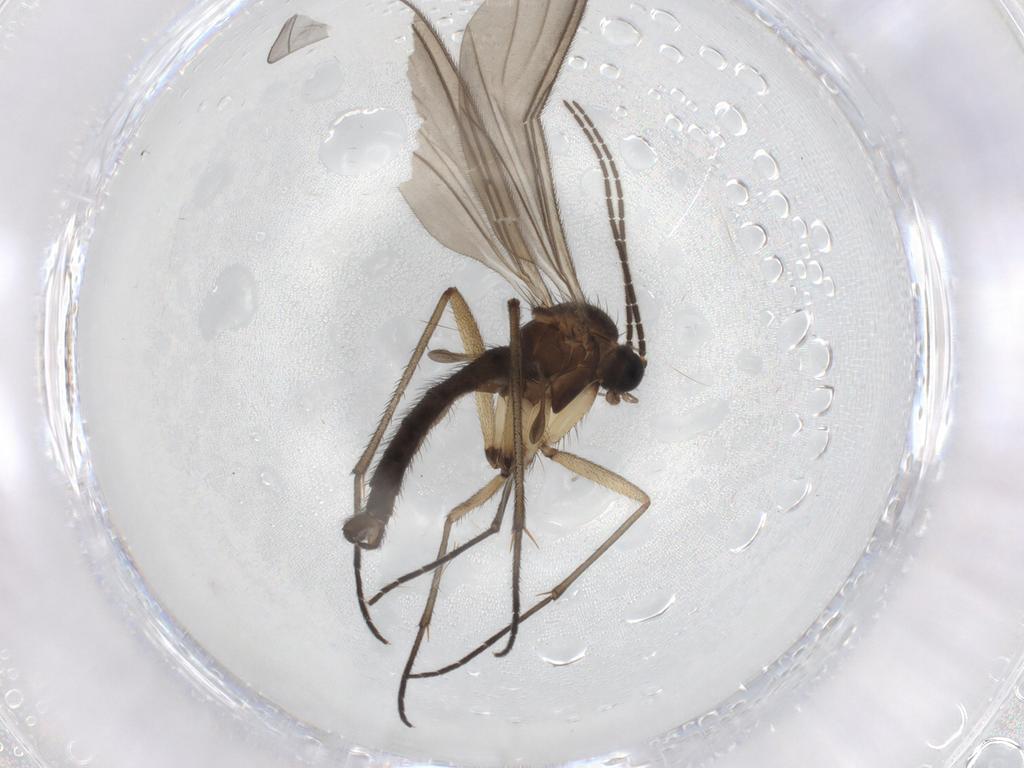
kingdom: Animalia
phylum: Arthropoda
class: Insecta
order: Diptera
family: Sciaridae
